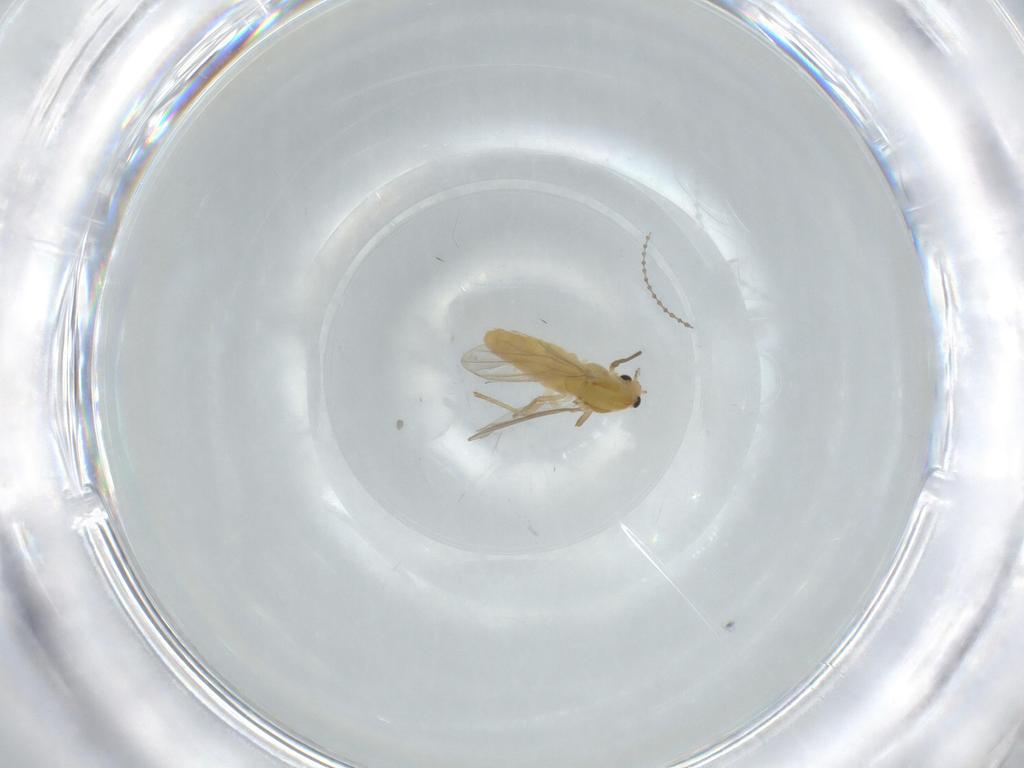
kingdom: Animalia
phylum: Arthropoda
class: Insecta
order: Diptera
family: Chironomidae
